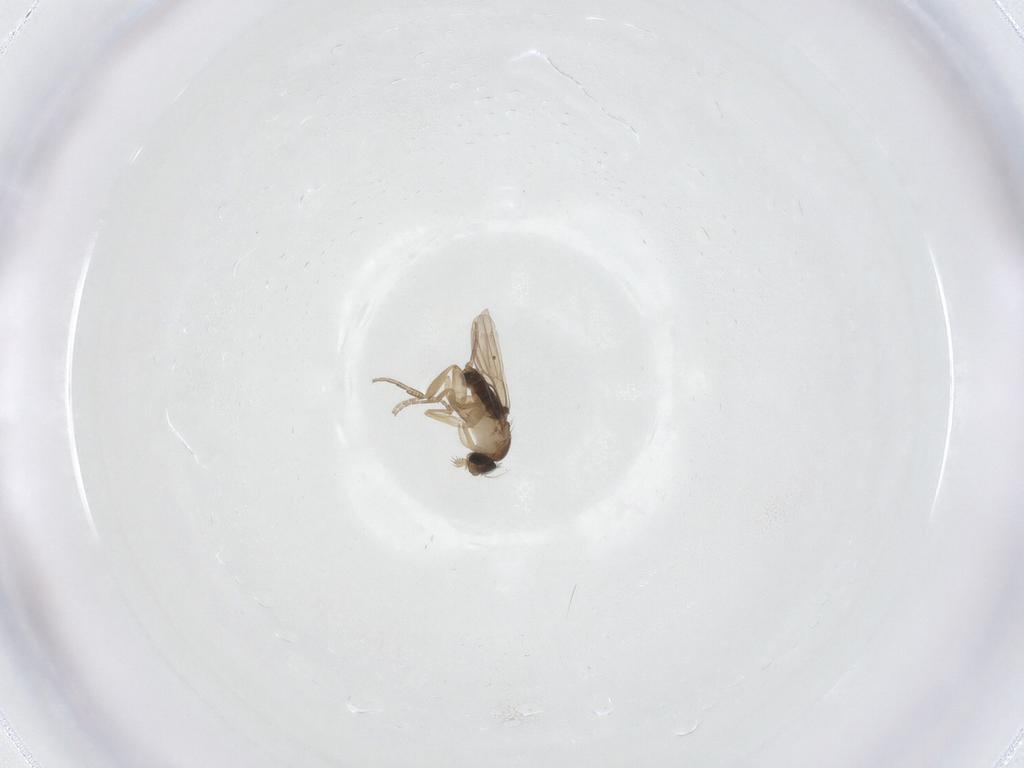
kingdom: Animalia
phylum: Arthropoda
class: Insecta
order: Diptera
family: Phoridae
